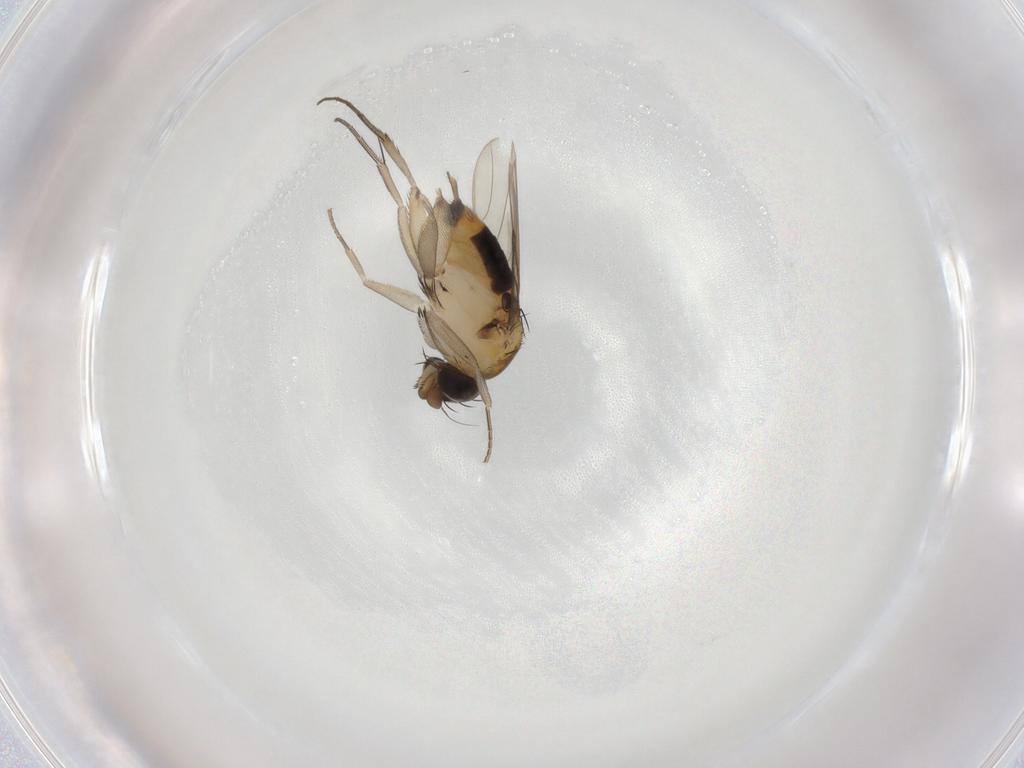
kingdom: Animalia
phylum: Arthropoda
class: Insecta
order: Diptera
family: Phoridae
